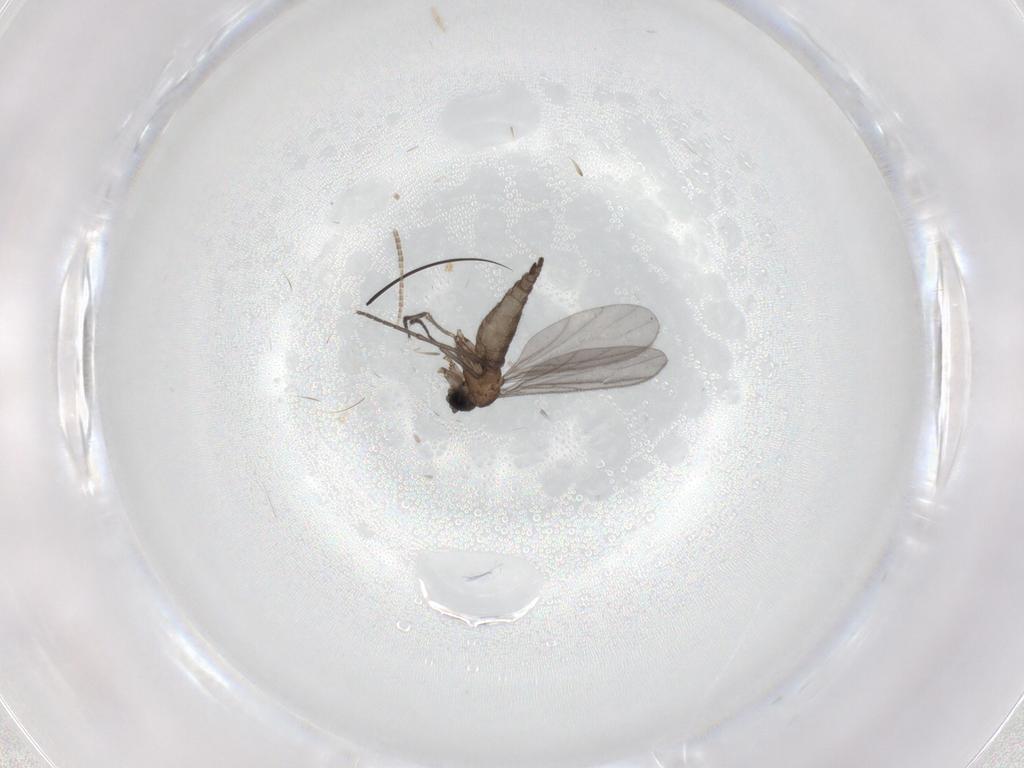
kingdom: Animalia
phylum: Arthropoda
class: Insecta
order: Diptera
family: Sciaridae
